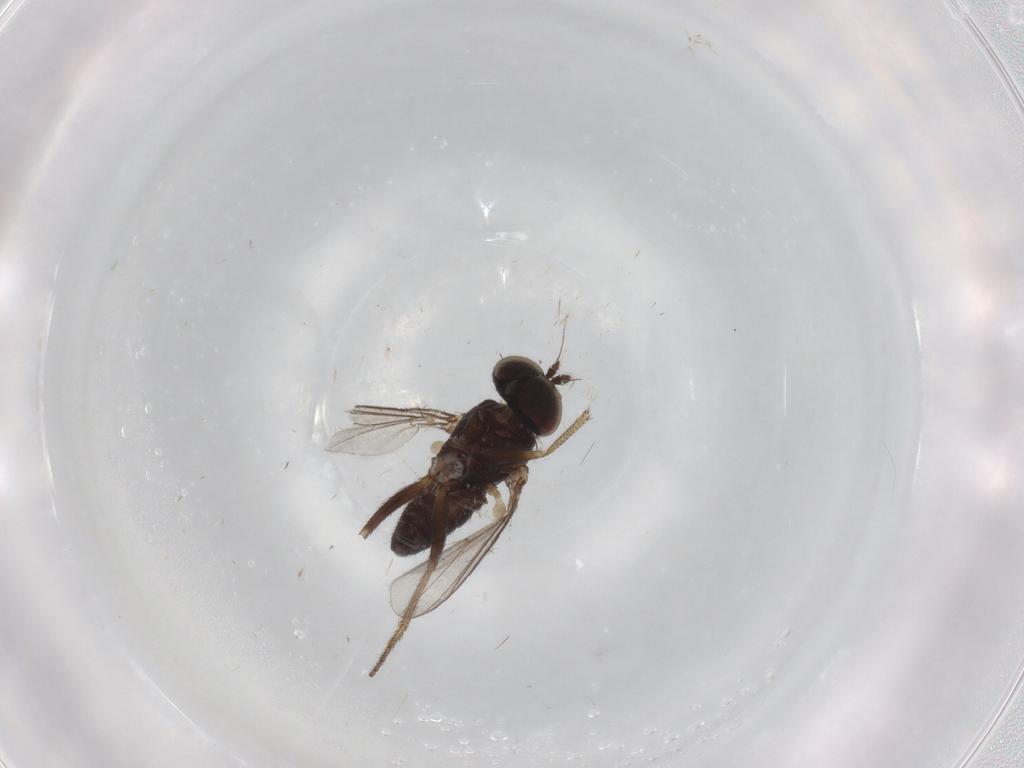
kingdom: Animalia
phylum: Arthropoda
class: Insecta
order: Diptera
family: Ceratopogonidae
